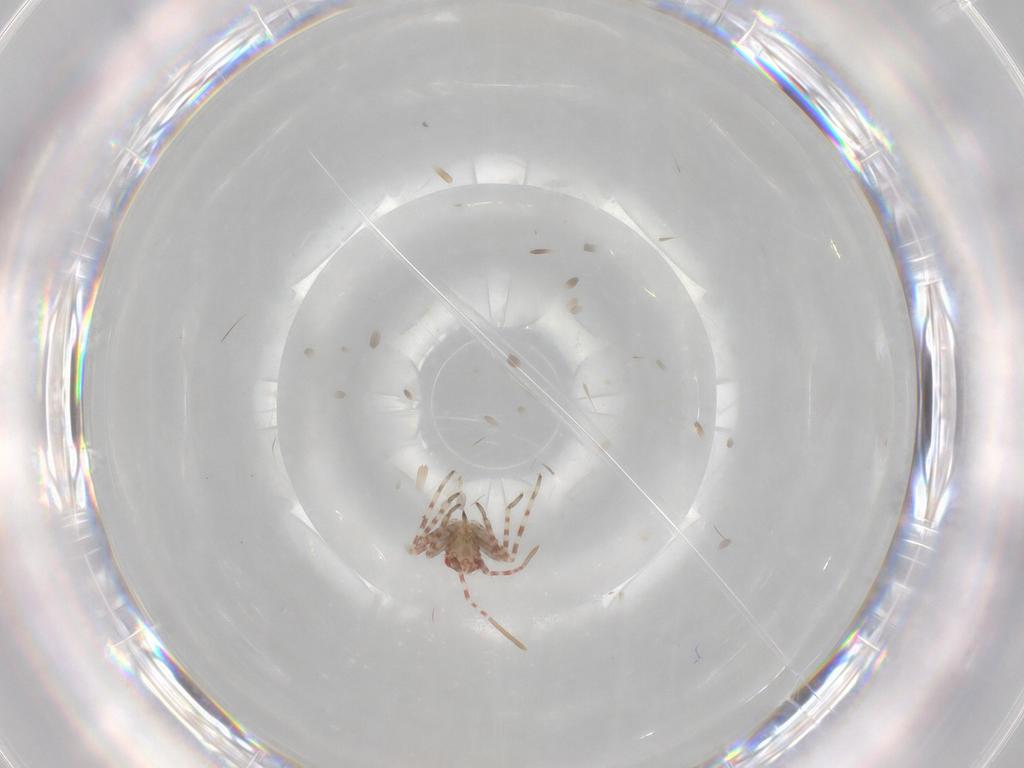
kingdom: Animalia
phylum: Arthropoda
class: Insecta
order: Hemiptera
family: Miridae
